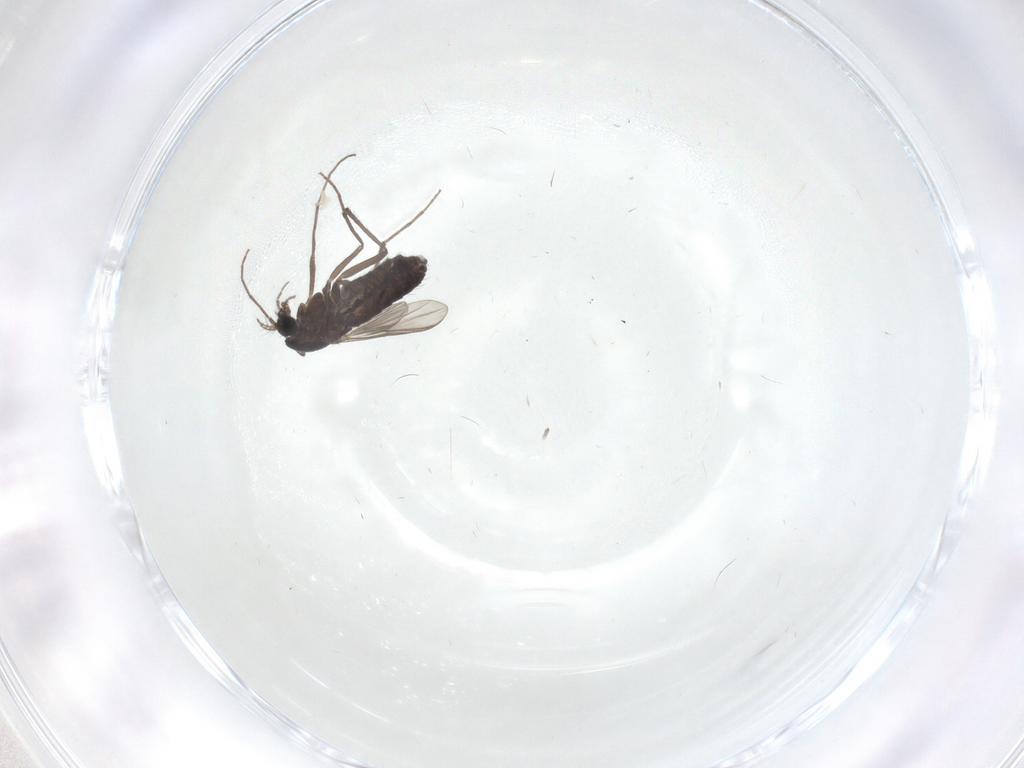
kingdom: Animalia
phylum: Arthropoda
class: Insecta
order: Diptera
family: Chironomidae
